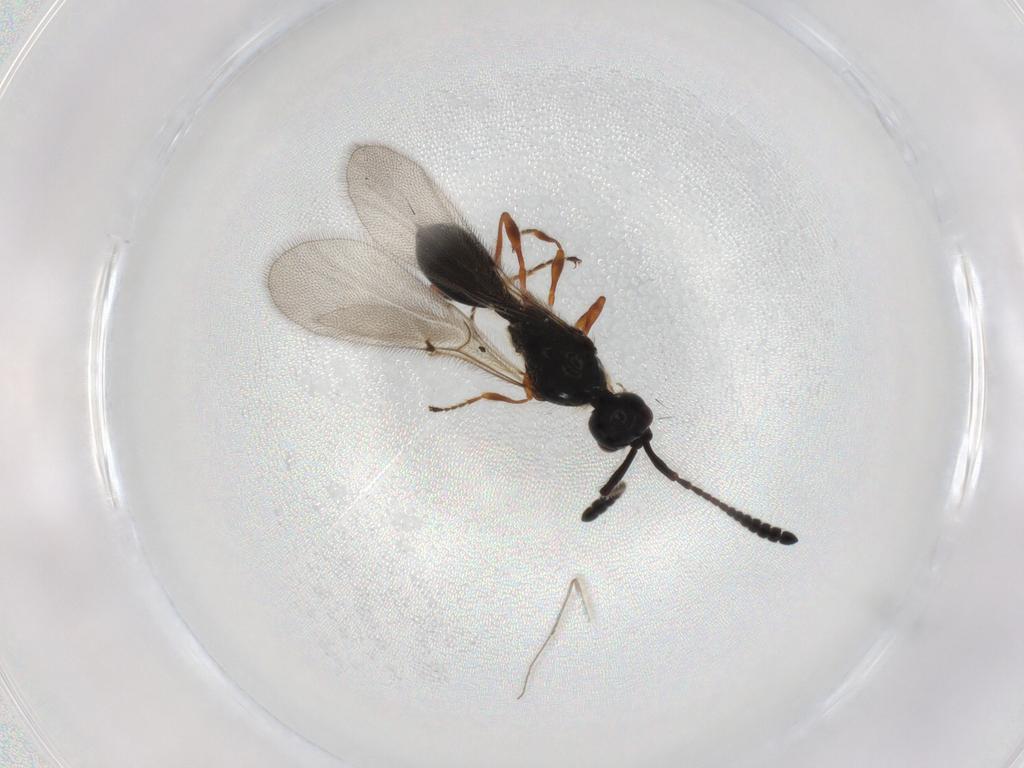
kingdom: Animalia
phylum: Arthropoda
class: Insecta
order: Hymenoptera
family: Diapriidae
